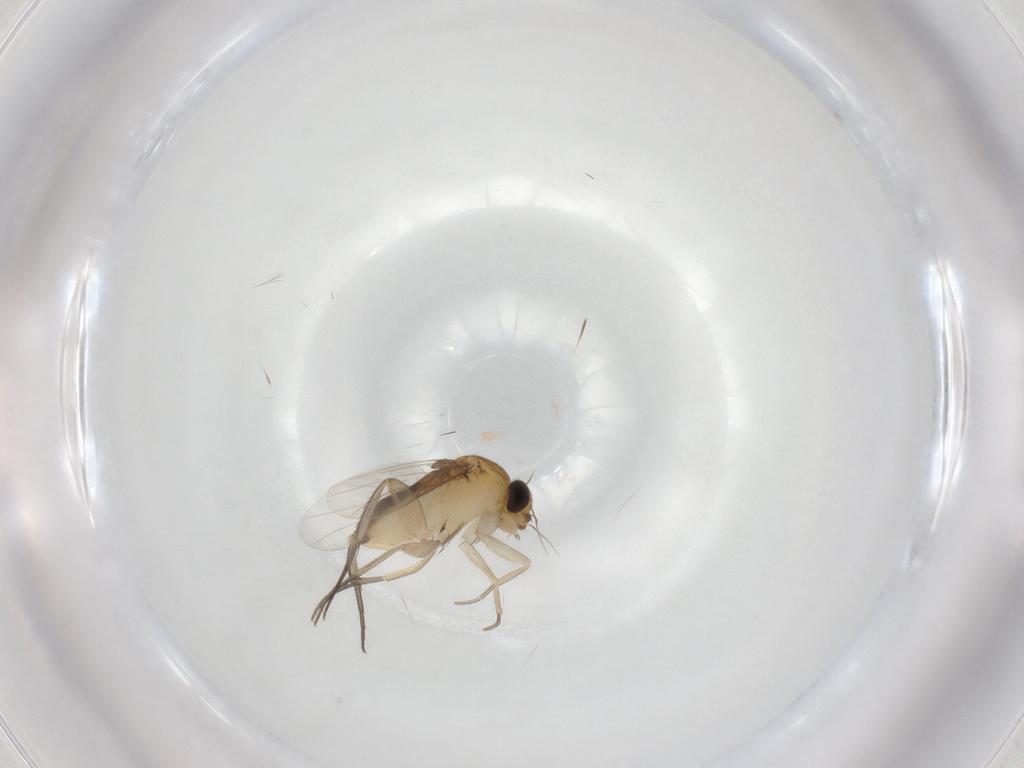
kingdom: Animalia
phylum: Arthropoda
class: Insecta
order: Diptera
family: Phoridae
